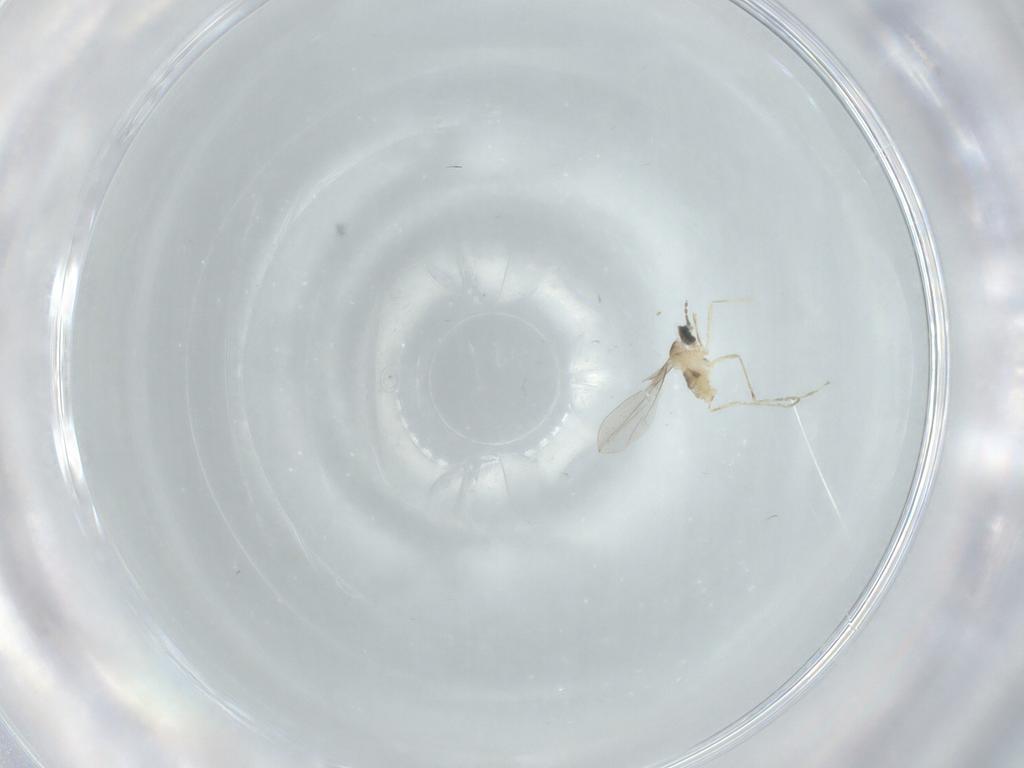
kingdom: Animalia
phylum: Arthropoda
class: Insecta
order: Diptera
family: Cecidomyiidae
